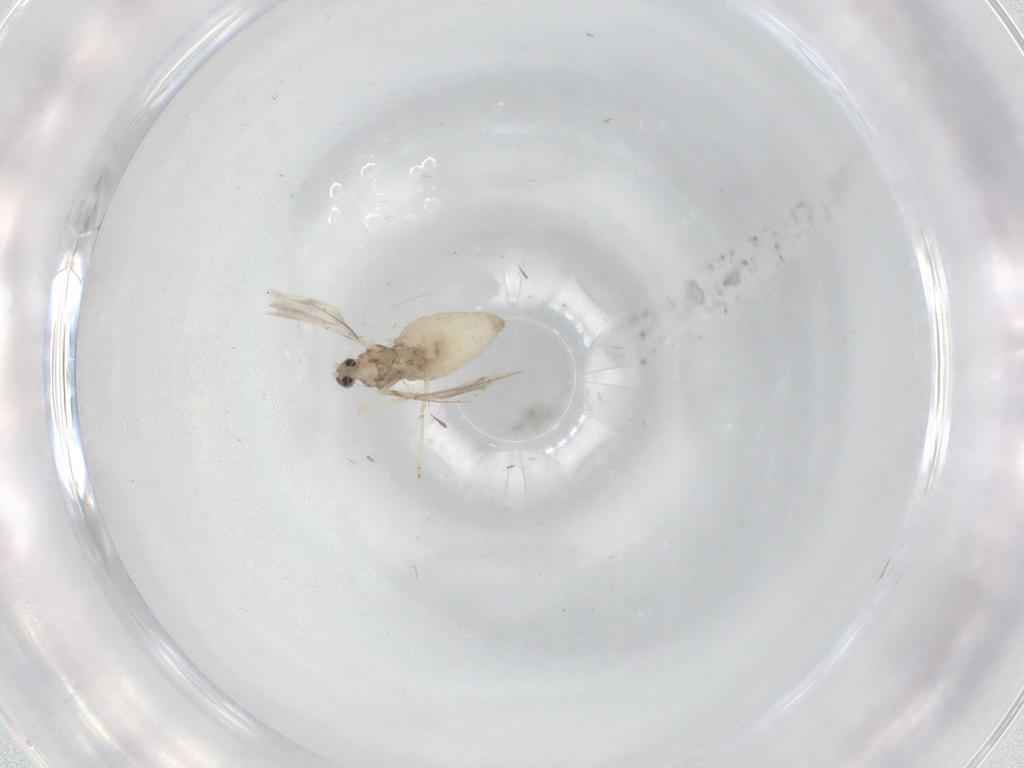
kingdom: Animalia
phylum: Arthropoda
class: Insecta
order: Diptera
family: Cecidomyiidae
